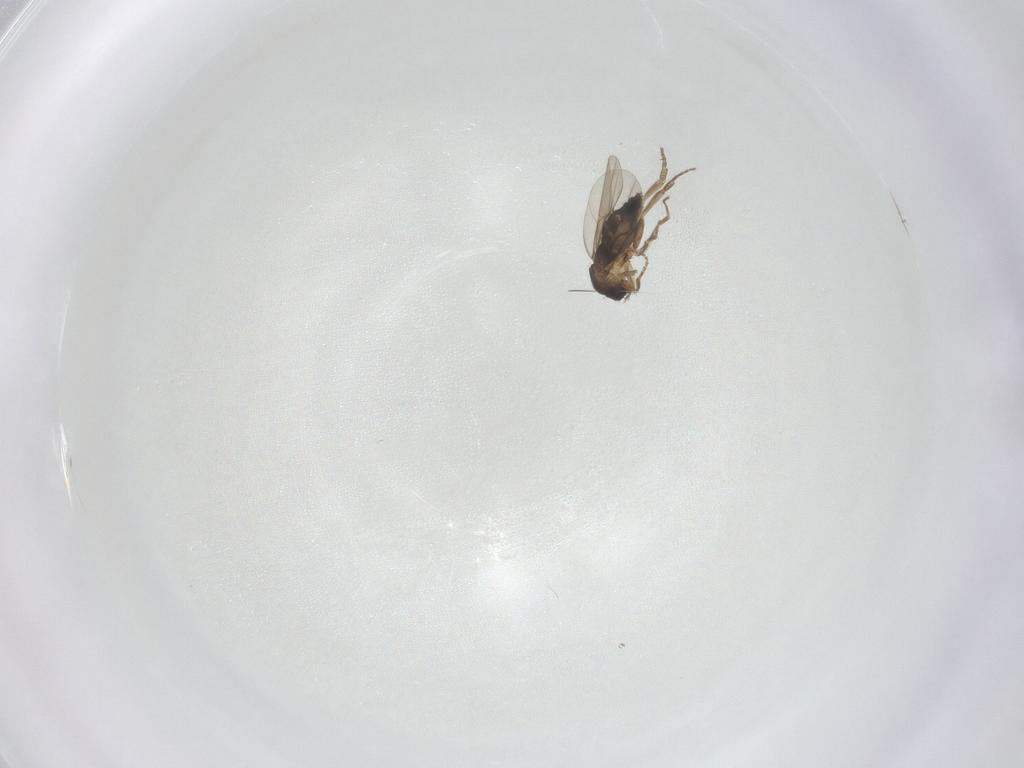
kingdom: Animalia
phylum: Arthropoda
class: Insecta
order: Diptera
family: Phoridae
